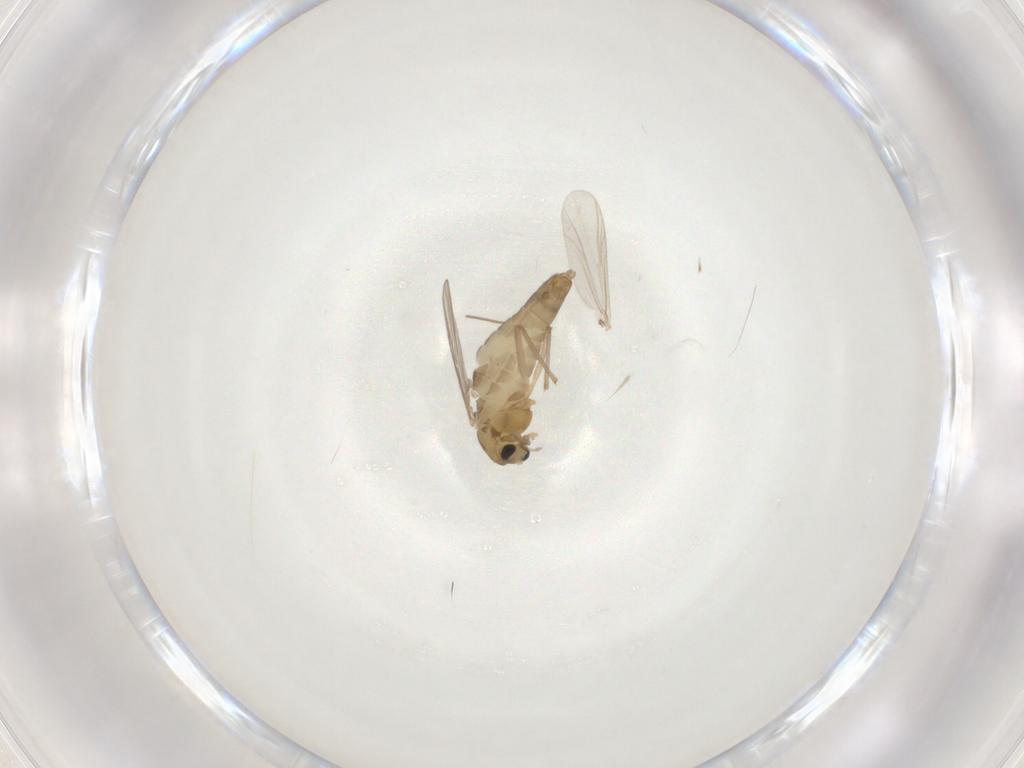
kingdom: Animalia
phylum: Arthropoda
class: Insecta
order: Diptera
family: Chironomidae
